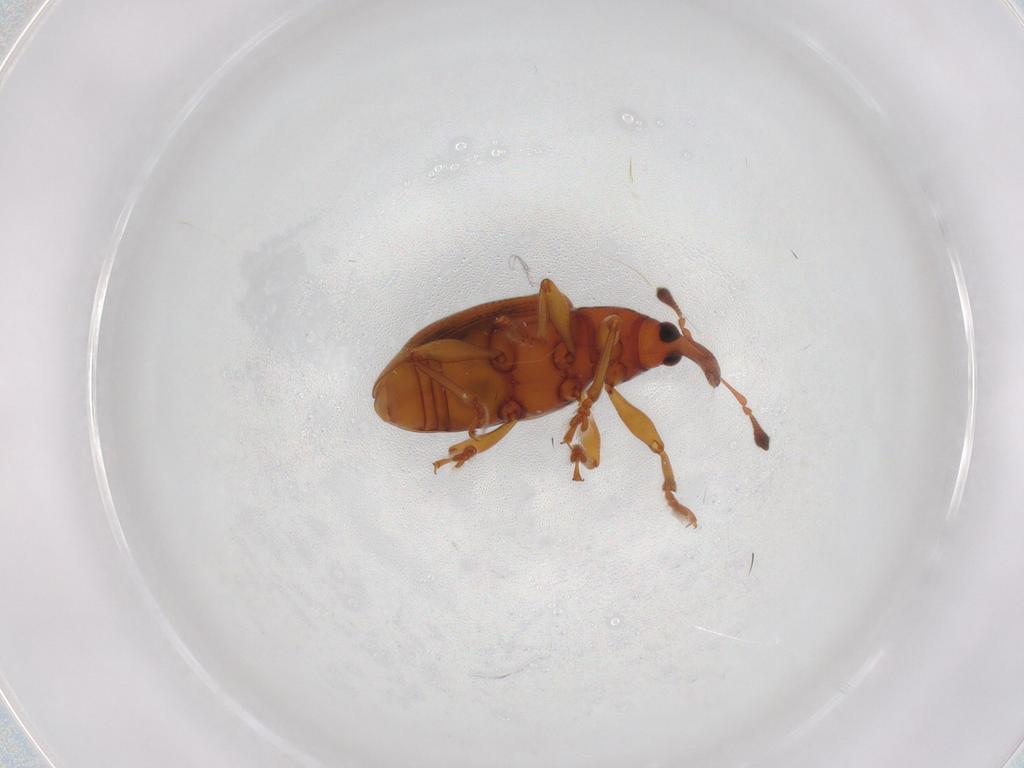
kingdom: Animalia
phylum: Arthropoda
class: Insecta
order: Coleoptera
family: Curculionidae
